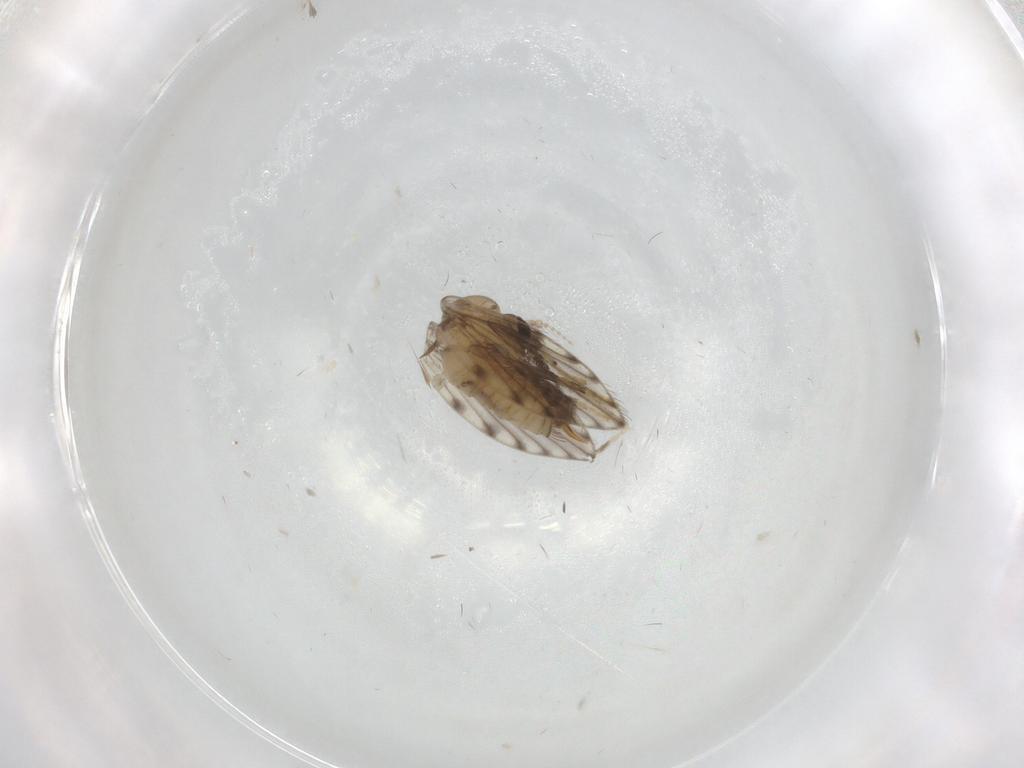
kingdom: Animalia
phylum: Arthropoda
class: Insecta
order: Diptera
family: Psychodidae
